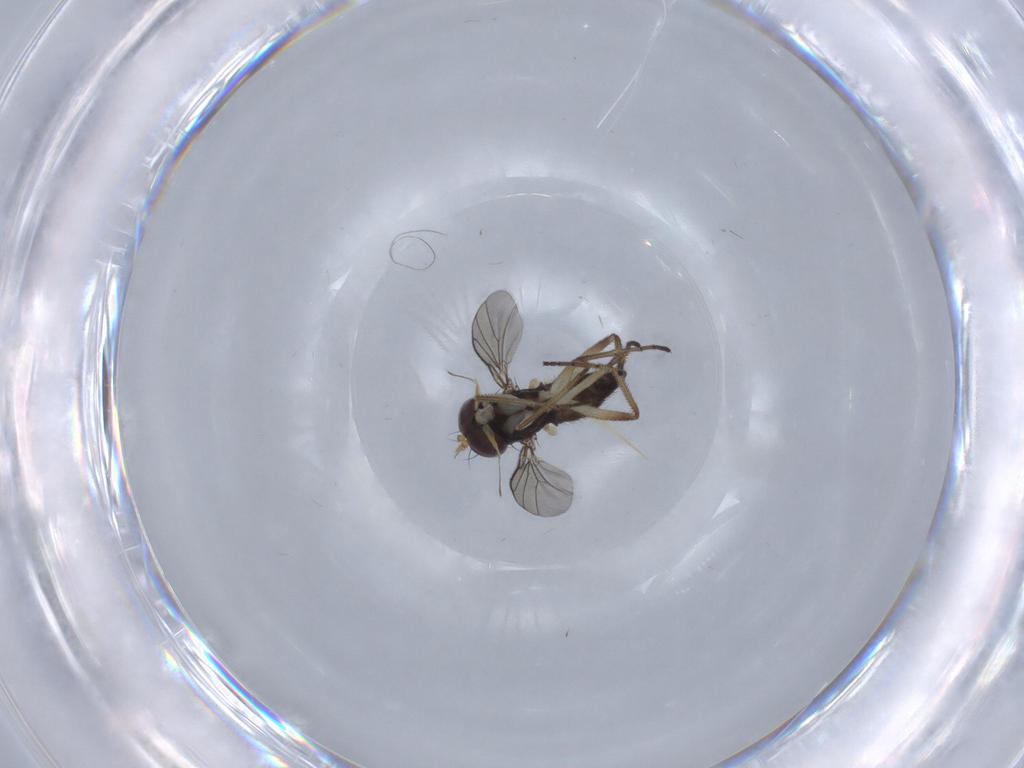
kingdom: Animalia
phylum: Arthropoda
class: Insecta
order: Diptera
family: Dolichopodidae
